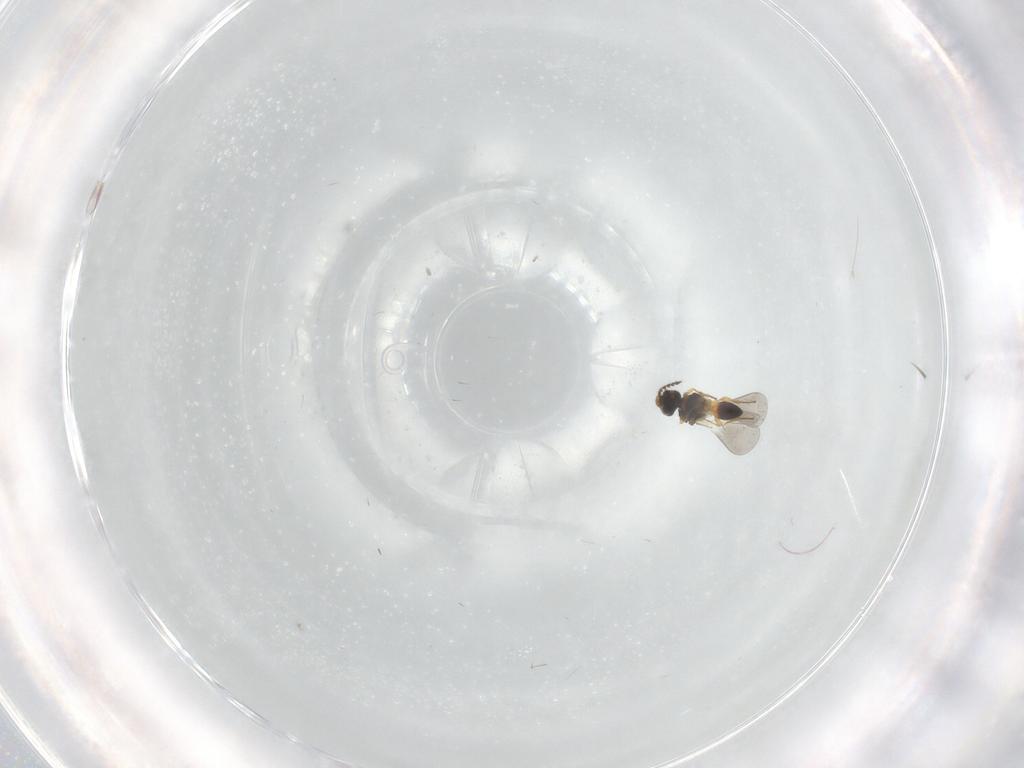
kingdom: Animalia
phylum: Arthropoda
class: Insecta
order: Hymenoptera
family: Platygastridae
